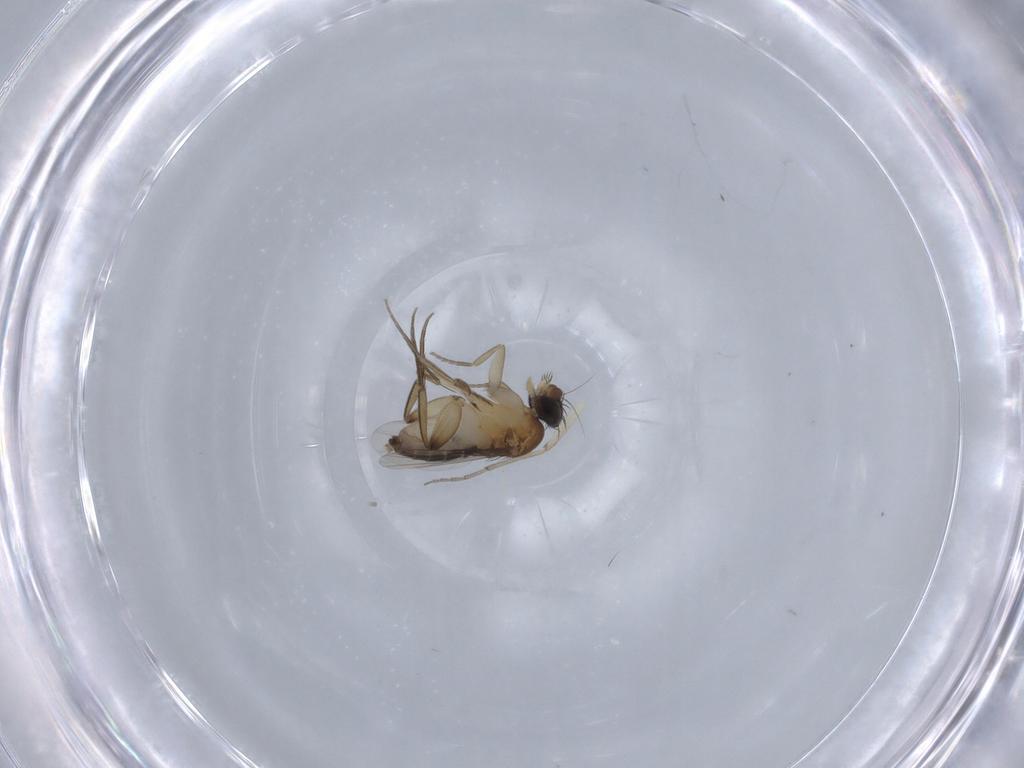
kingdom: Animalia
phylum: Arthropoda
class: Insecta
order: Diptera
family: Phoridae
